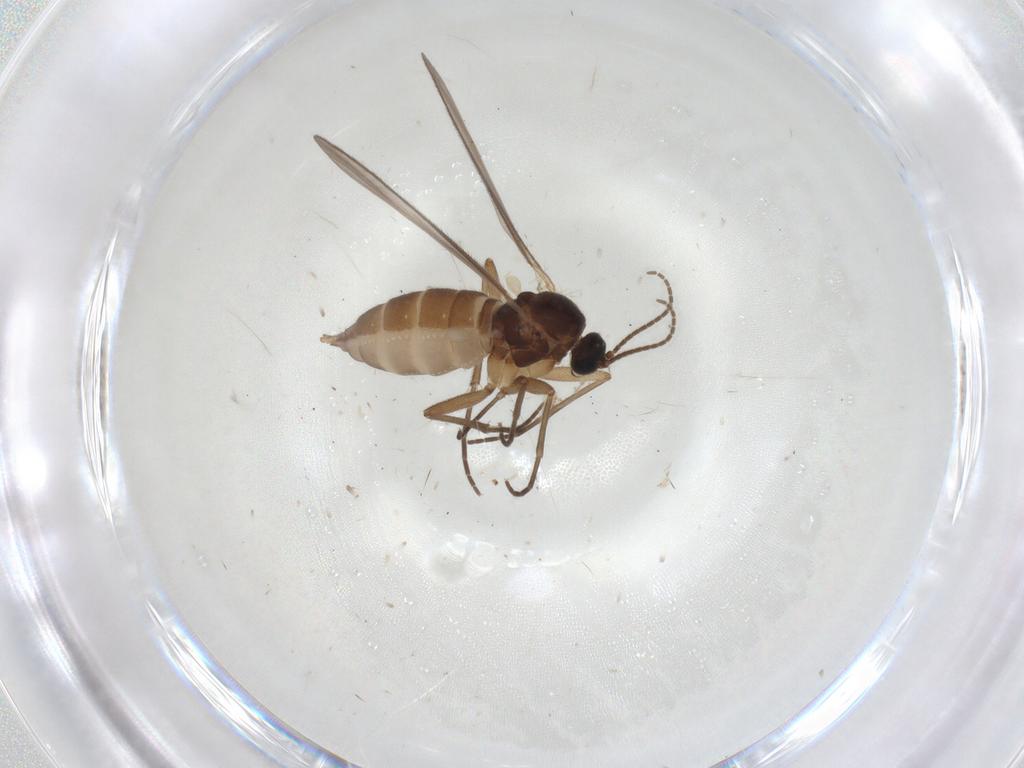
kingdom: Animalia
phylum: Arthropoda
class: Insecta
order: Diptera
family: Sciaridae
